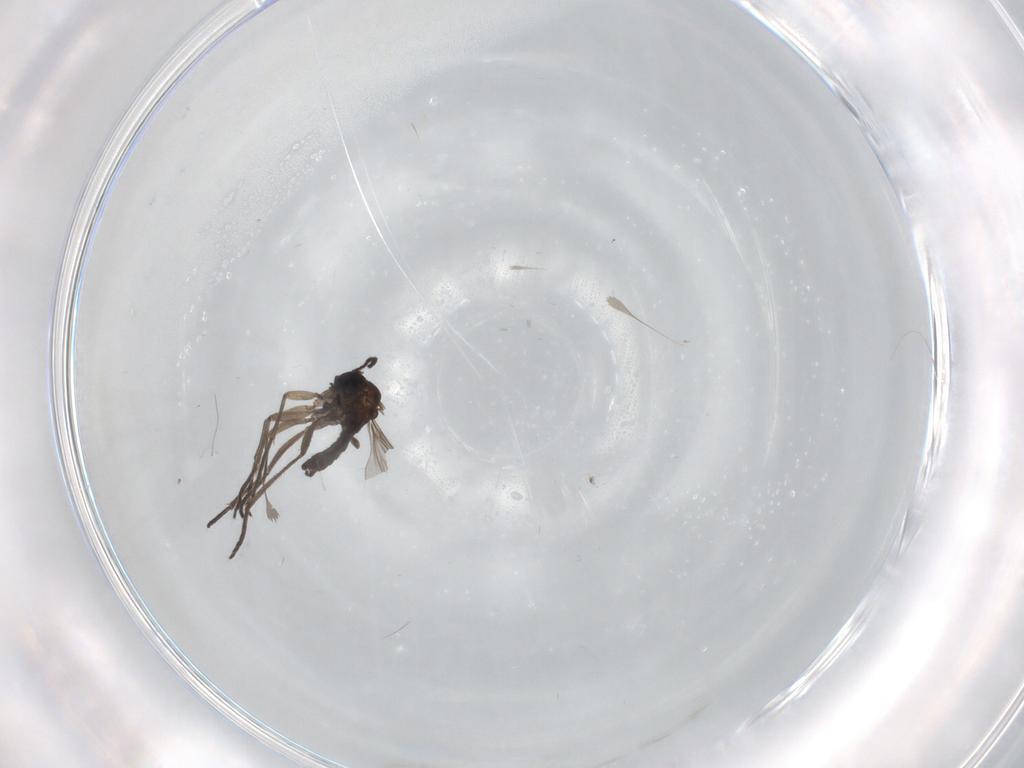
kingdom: Animalia
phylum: Arthropoda
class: Insecta
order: Diptera
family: Sciaridae
